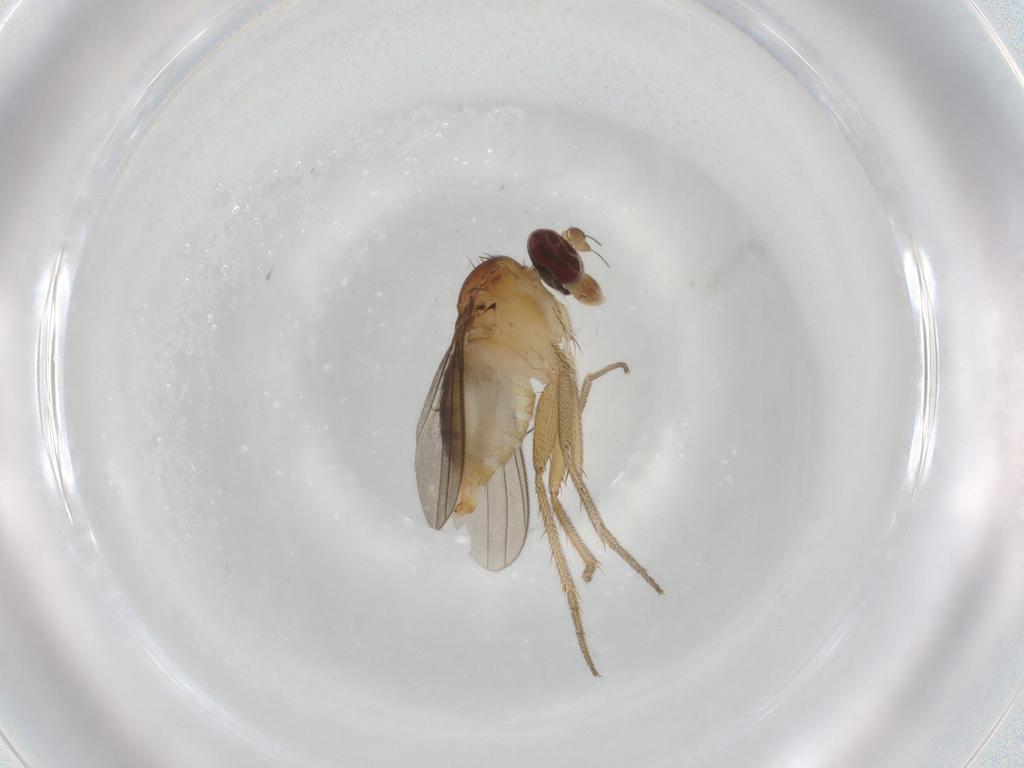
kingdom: Animalia
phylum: Arthropoda
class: Insecta
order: Diptera
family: Dolichopodidae
